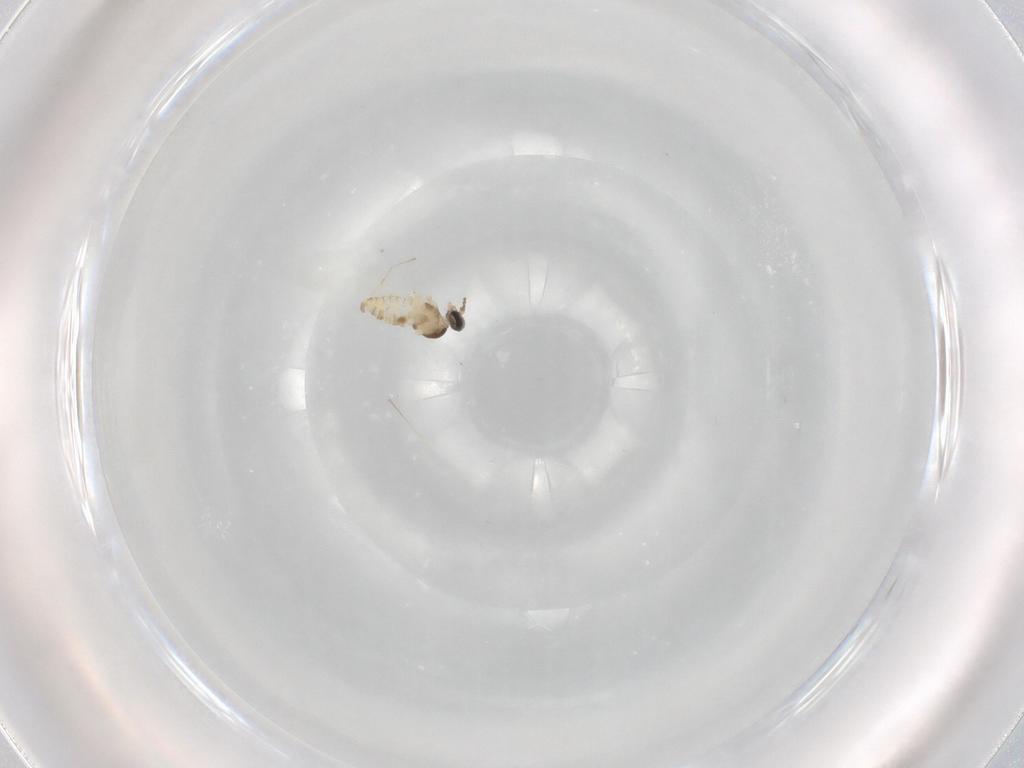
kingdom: Animalia
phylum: Arthropoda
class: Insecta
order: Diptera
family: Cecidomyiidae
